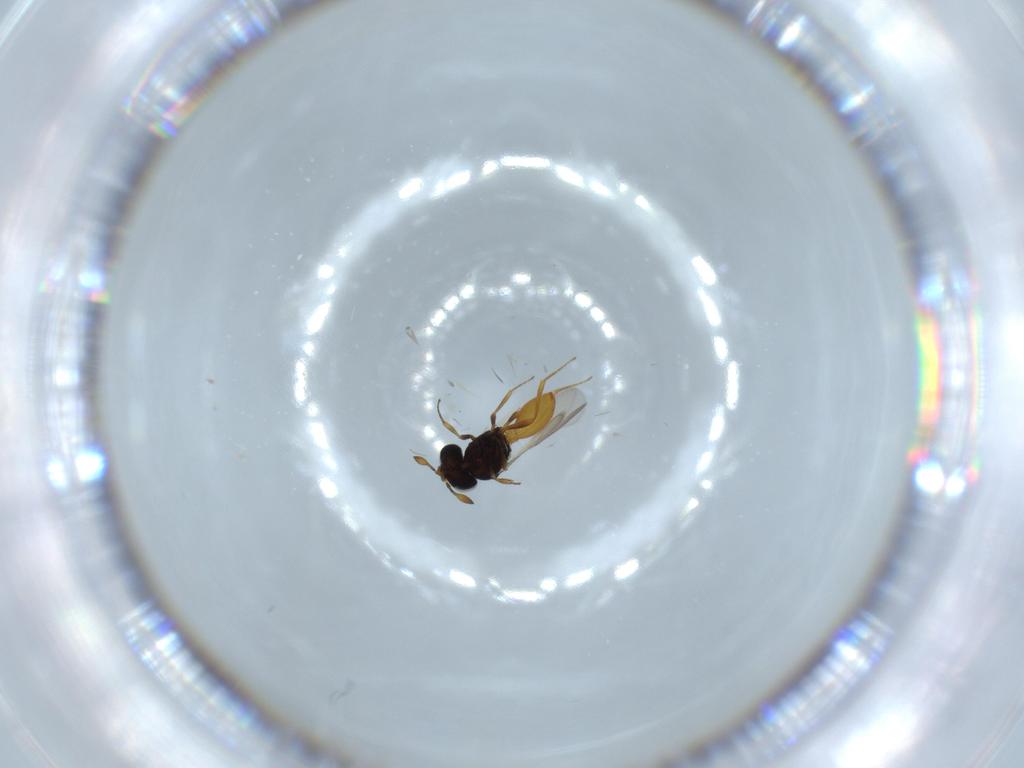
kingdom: Animalia
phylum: Arthropoda
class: Insecta
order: Hymenoptera
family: Scelionidae
